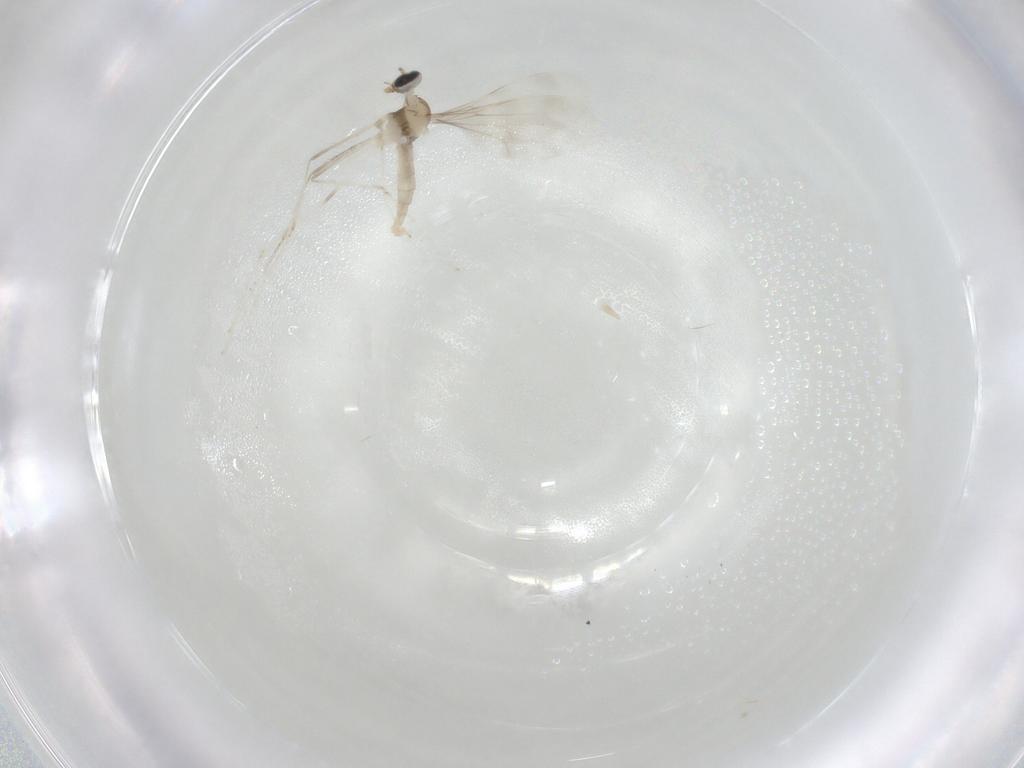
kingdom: Animalia
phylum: Arthropoda
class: Insecta
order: Diptera
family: Cecidomyiidae
